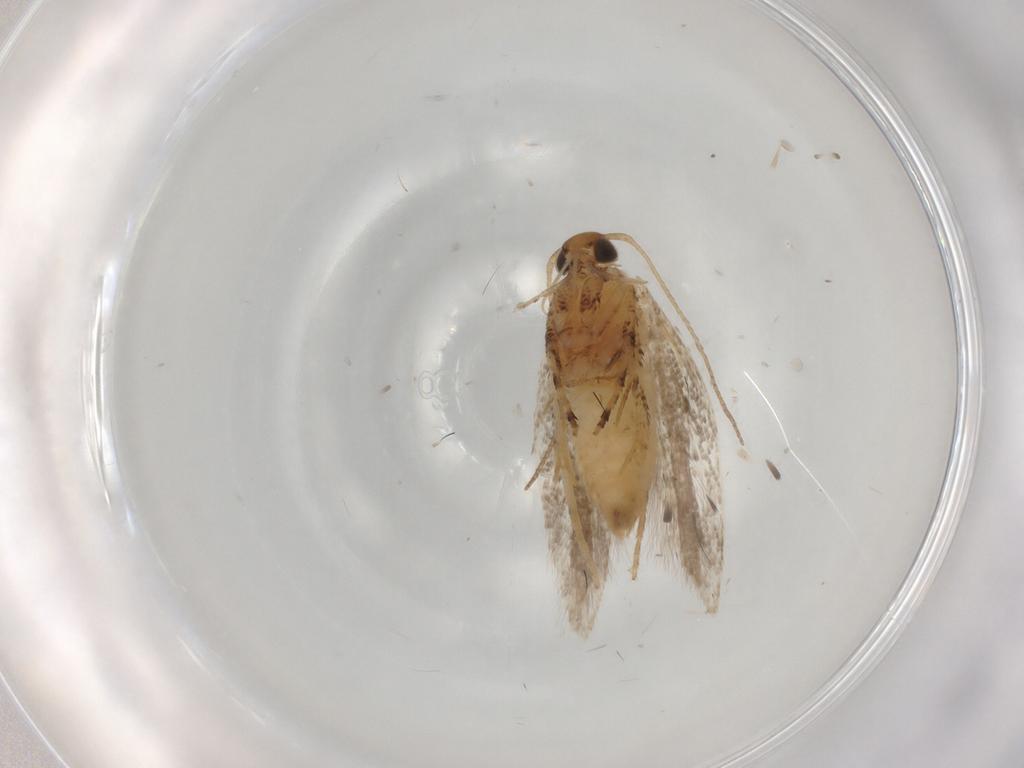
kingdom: Animalia
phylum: Arthropoda
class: Insecta
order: Lepidoptera
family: Gelechiidae
